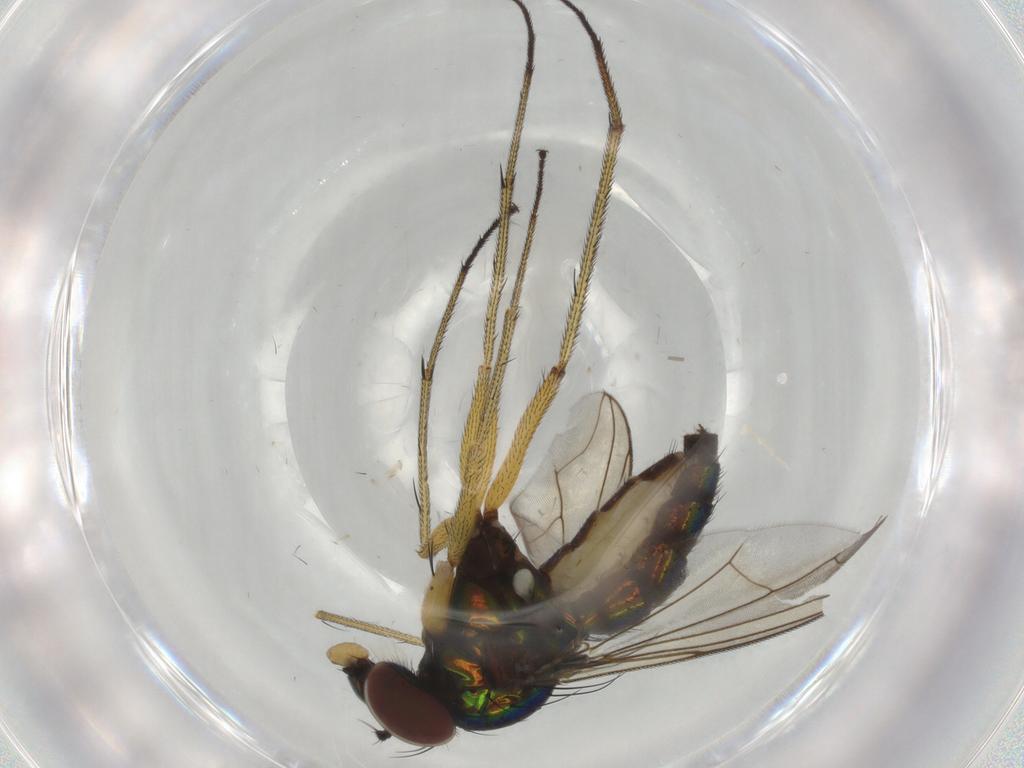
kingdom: Animalia
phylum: Arthropoda
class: Insecta
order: Diptera
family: Dolichopodidae
